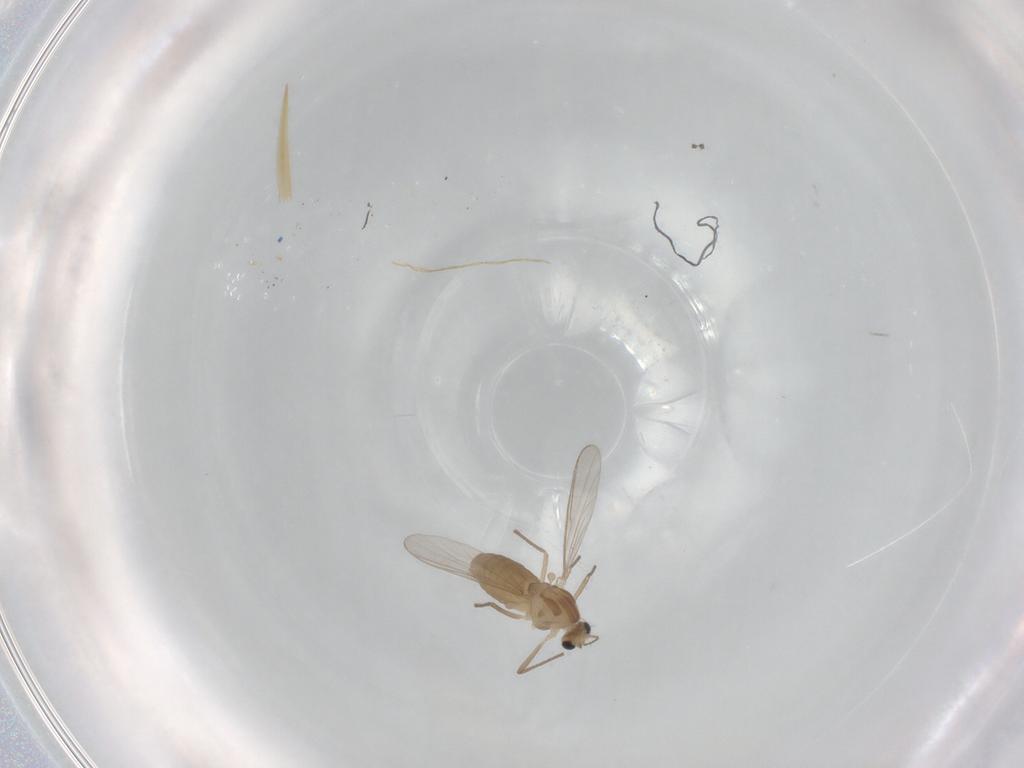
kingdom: Animalia
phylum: Arthropoda
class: Insecta
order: Diptera
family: Chironomidae
